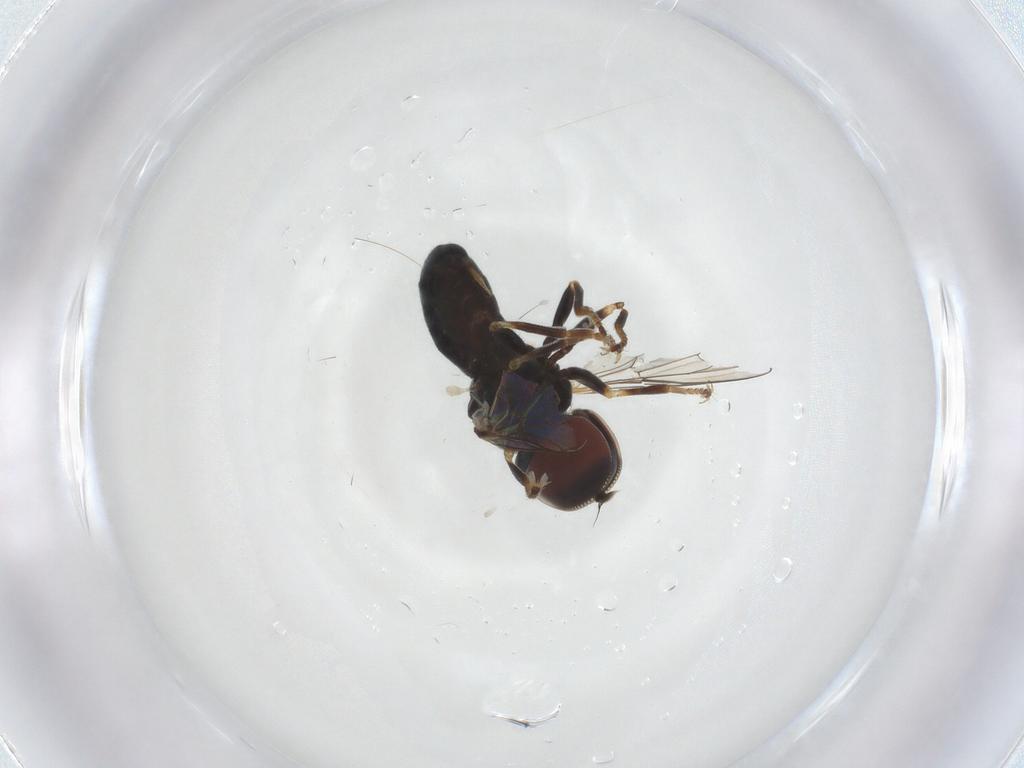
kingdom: Animalia
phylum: Arthropoda
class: Insecta
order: Diptera
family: Pipunculidae
